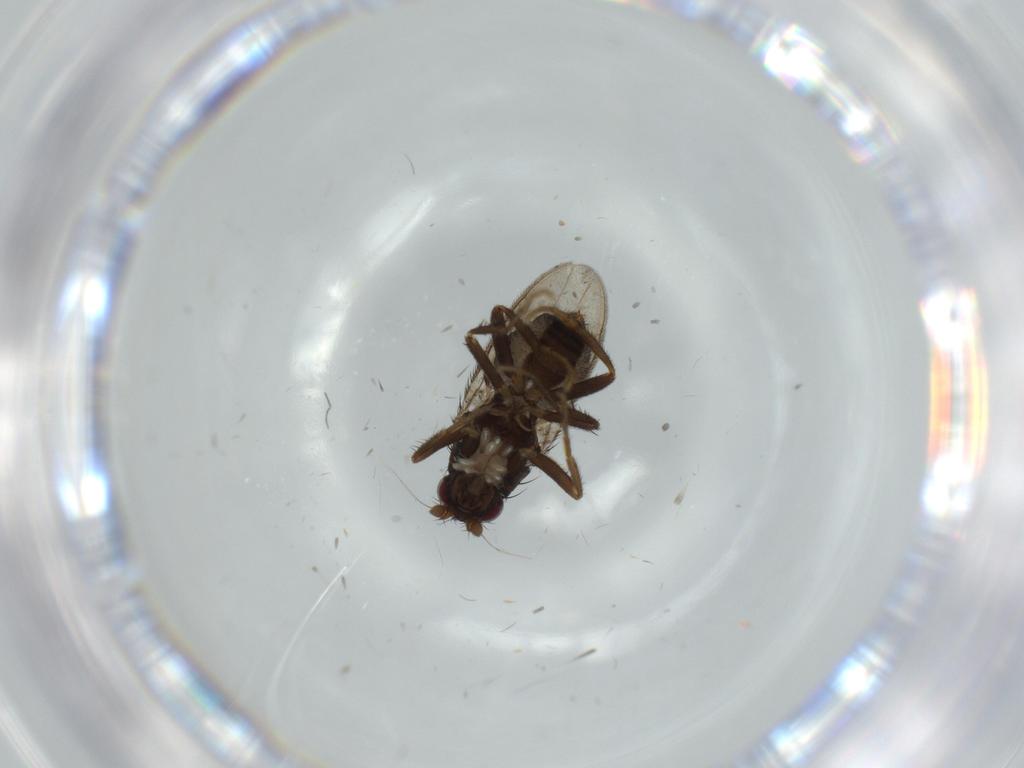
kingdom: Animalia
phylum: Arthropoda
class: Insecta
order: Diptera
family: Sphaeroceridae
